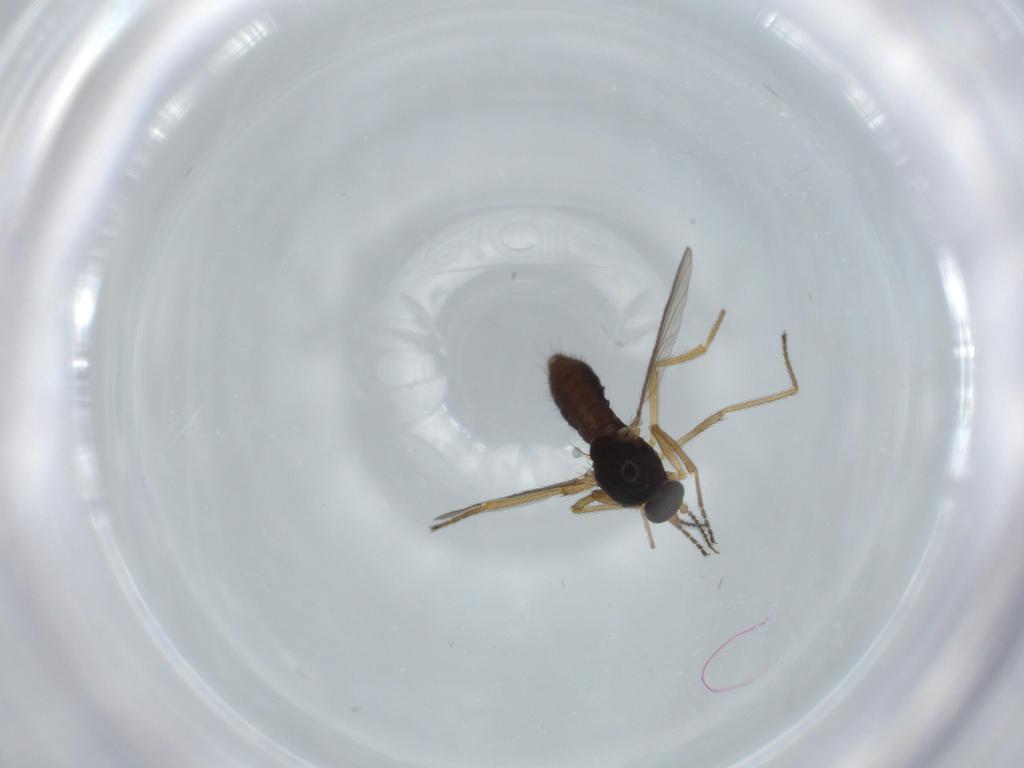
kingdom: Animalia
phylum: Arthropoda
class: Insecta
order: Diptera
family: Ceratopogonidae
